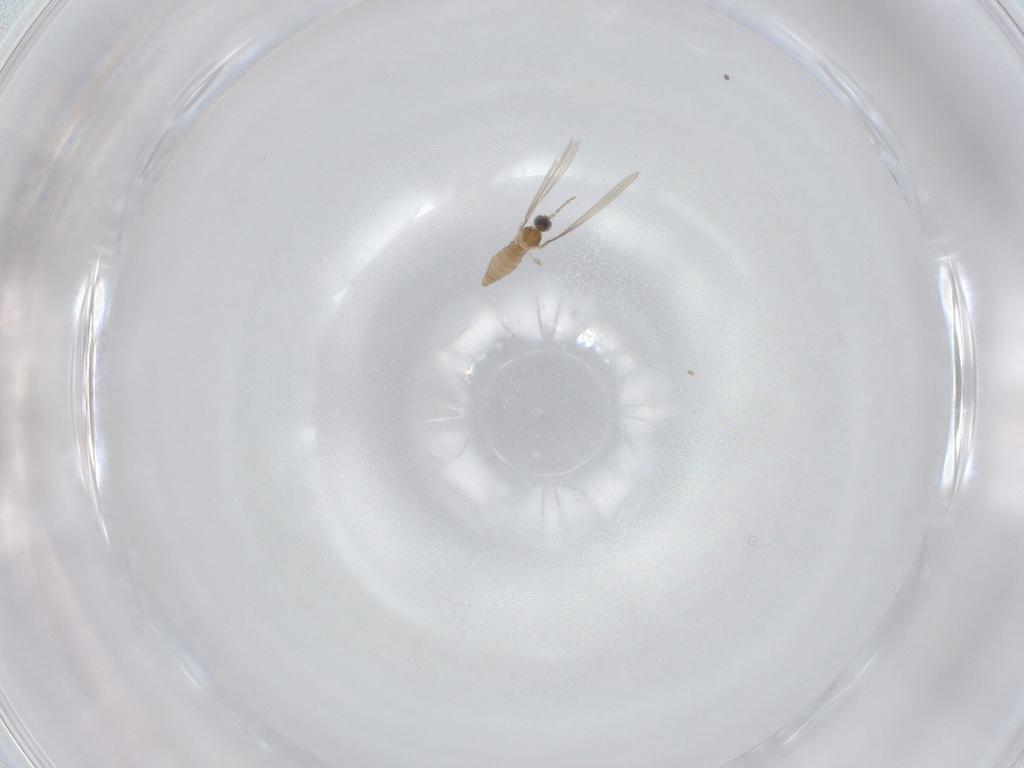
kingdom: Animalia
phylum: Arthropoda
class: Insecta
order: Diptera
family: Cecidomyiidae
